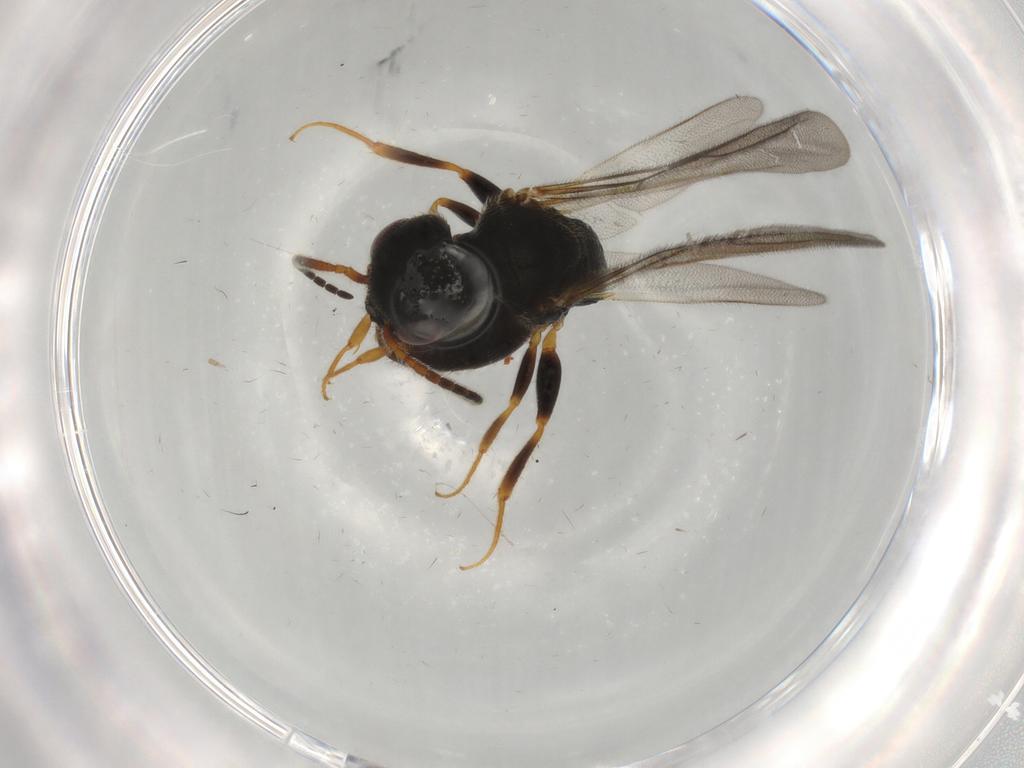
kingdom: Animalia
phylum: Arthropoda
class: Insecta
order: Hymenoptera
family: Bethylidae
